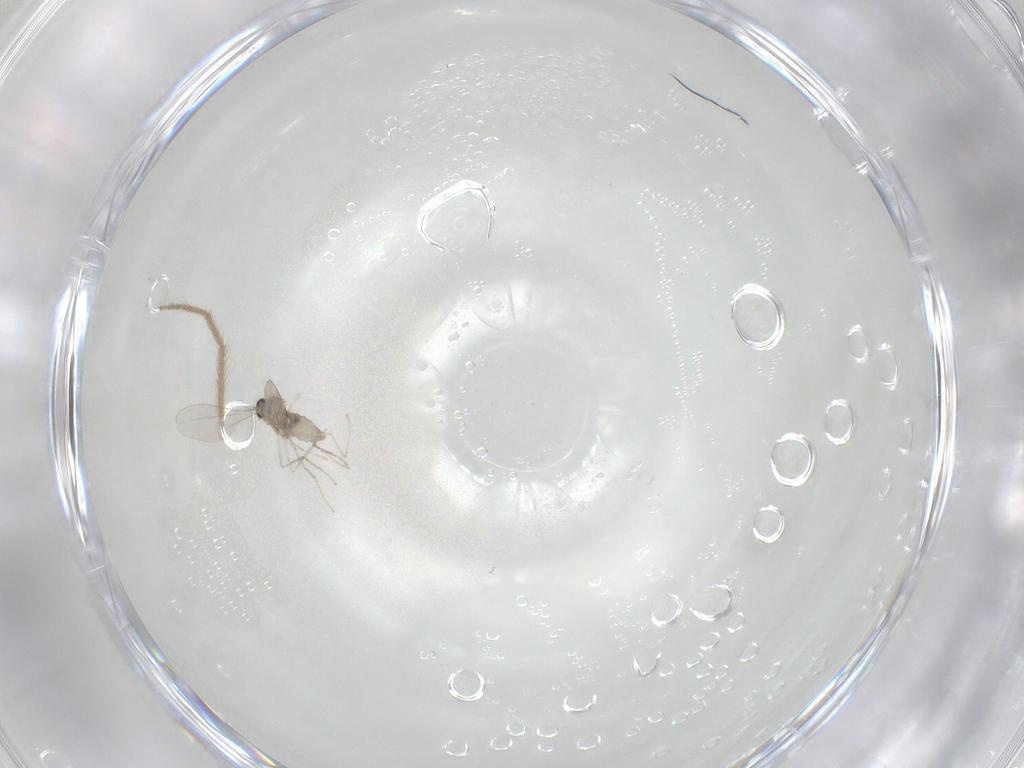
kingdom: Animalia
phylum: Arthropoda
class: Insecta
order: Diptera
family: Cecidomyiidae
